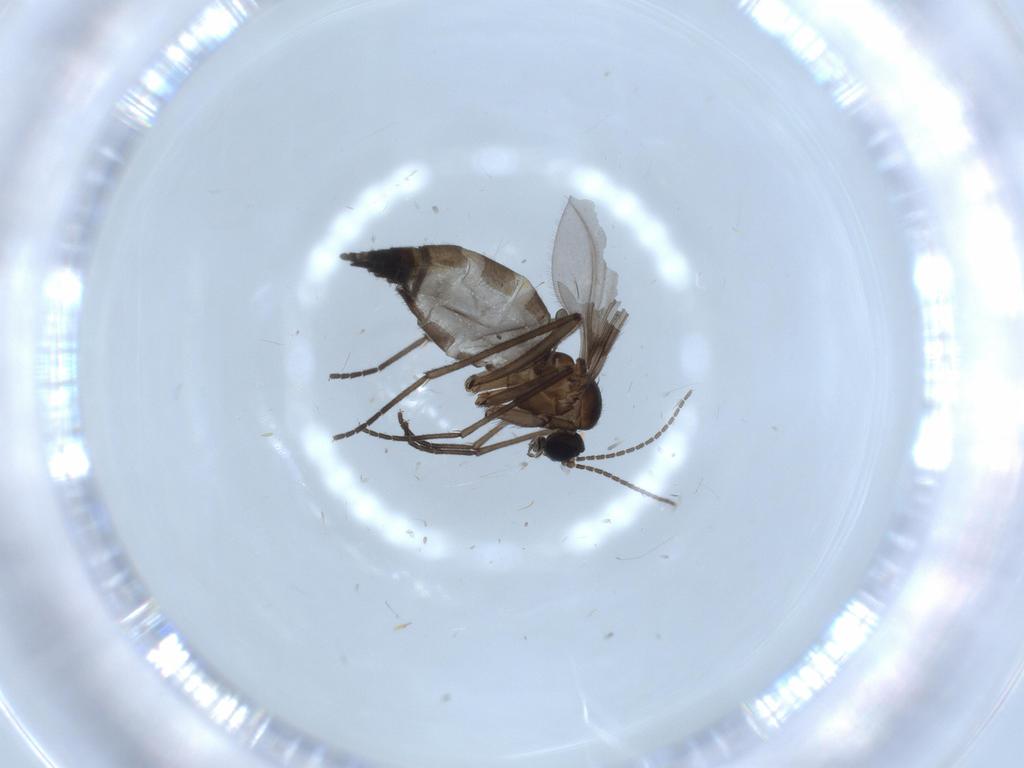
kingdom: Animalia
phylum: Arthropoda
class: Insecta
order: Diptera
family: Sciaridae
